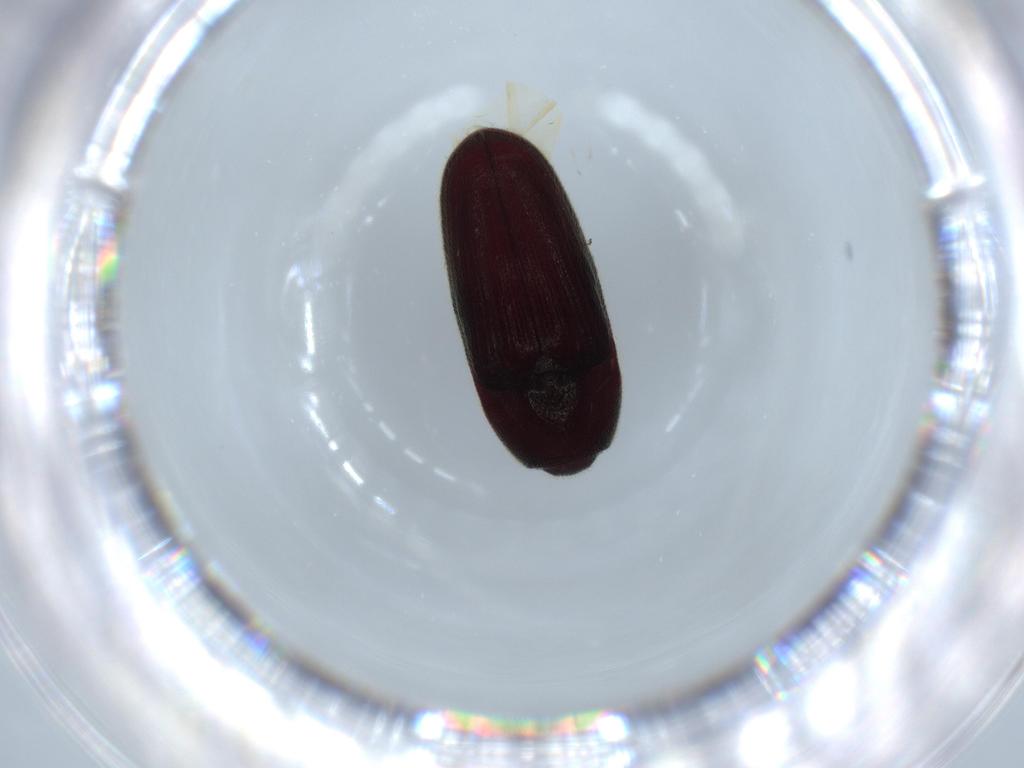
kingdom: Animalia
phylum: Arthropoda
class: Insecta
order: Coleoptera
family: Throscidae
